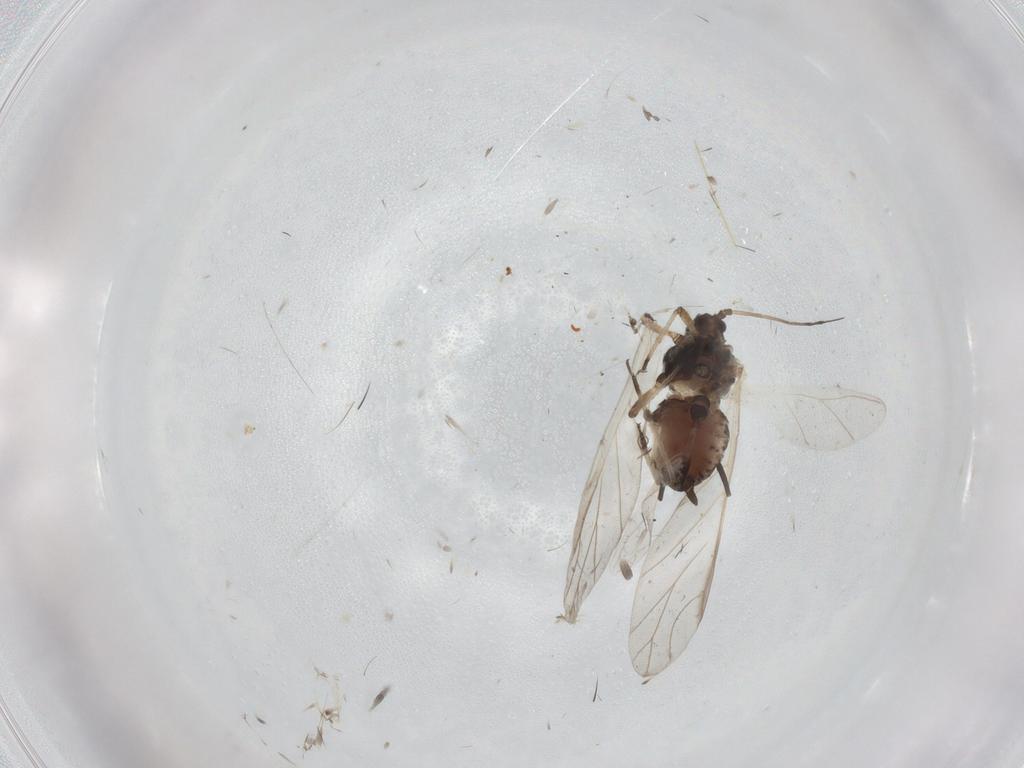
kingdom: Animalia
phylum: Arthropoda
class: Insecta
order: Hemiptera
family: Aphididae
